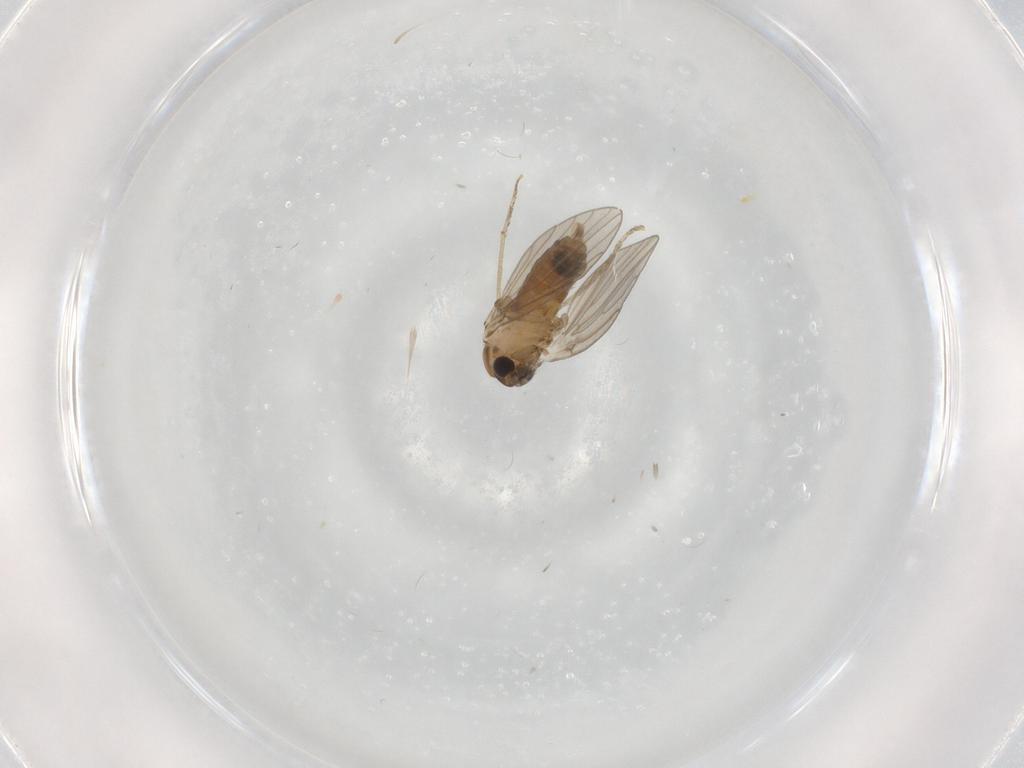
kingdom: Animalia
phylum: Arthropoda
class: Insecta
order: Diptera
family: Psychodidae
